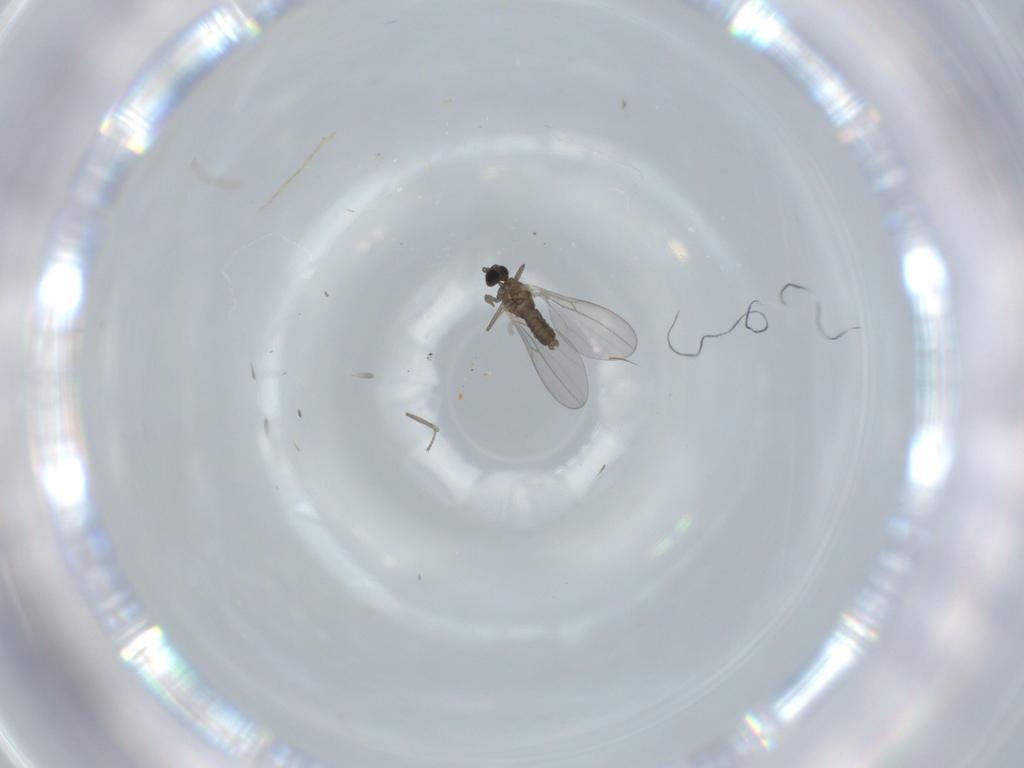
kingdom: Animalia
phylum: Arthropoda
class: Insecta
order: Diptera
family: Cecidomyiidae
